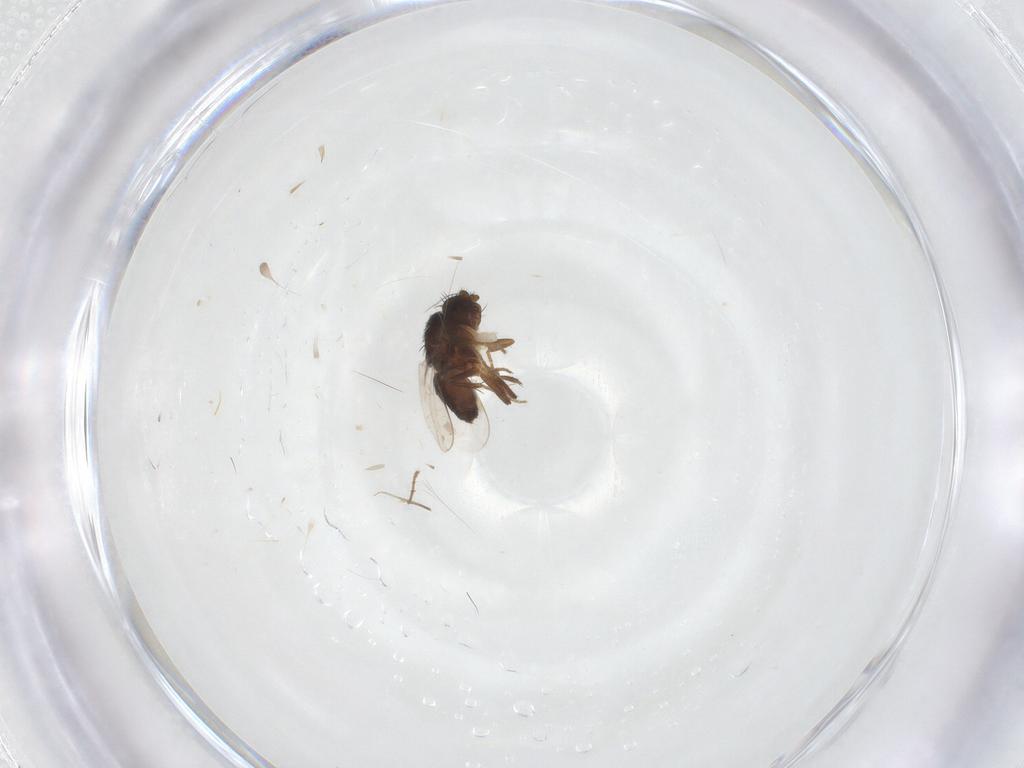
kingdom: Animalia
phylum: Arthropoda
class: Insecta
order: Diptera
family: Sphaeroceridae
